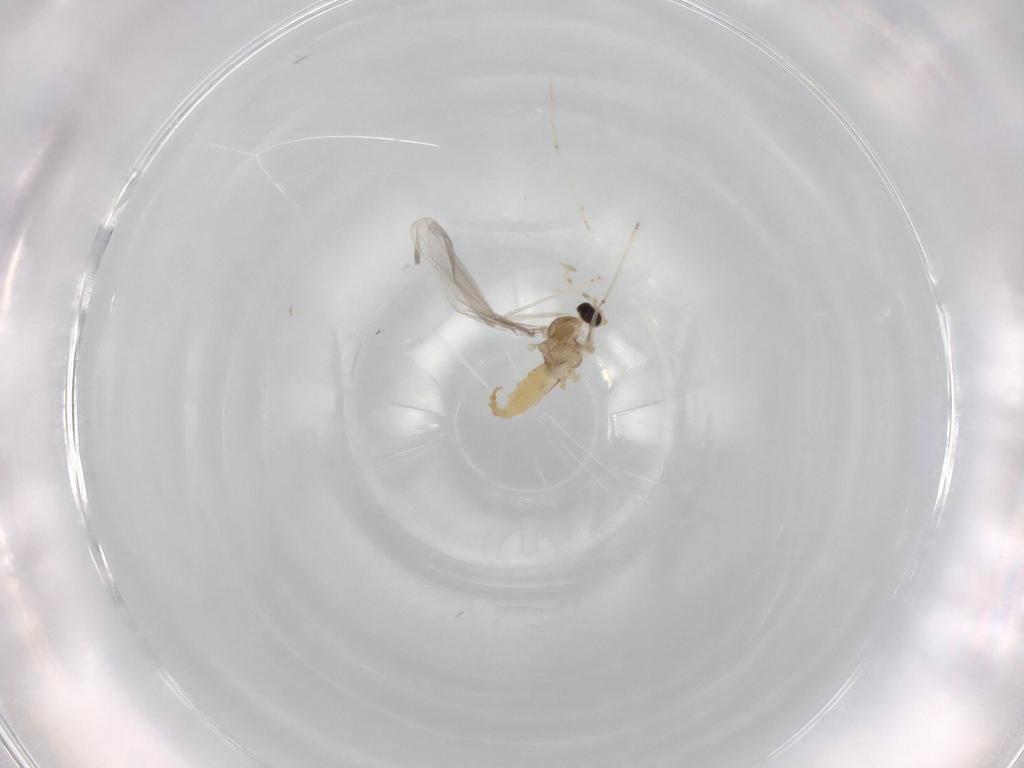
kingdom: Animalia
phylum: Arthropoda
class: Insecta
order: Diptera
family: Cecidomyiidae
